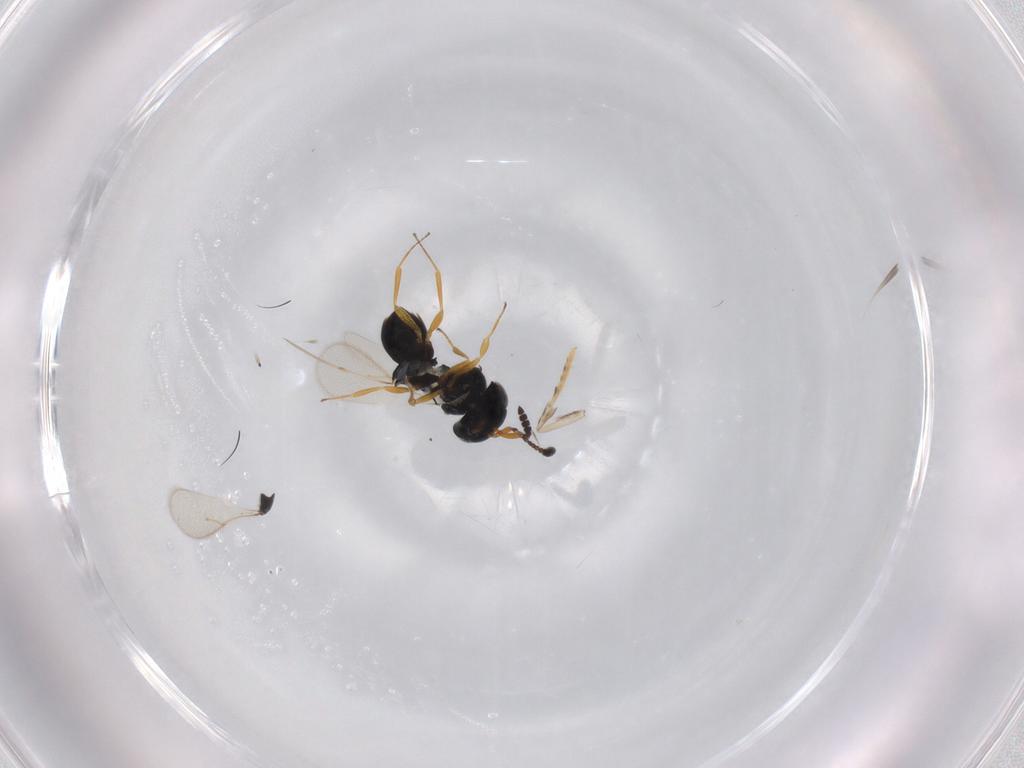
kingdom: Animalia
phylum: Arthropoda
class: Insecta
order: Hymenoptera
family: Scelionidae
